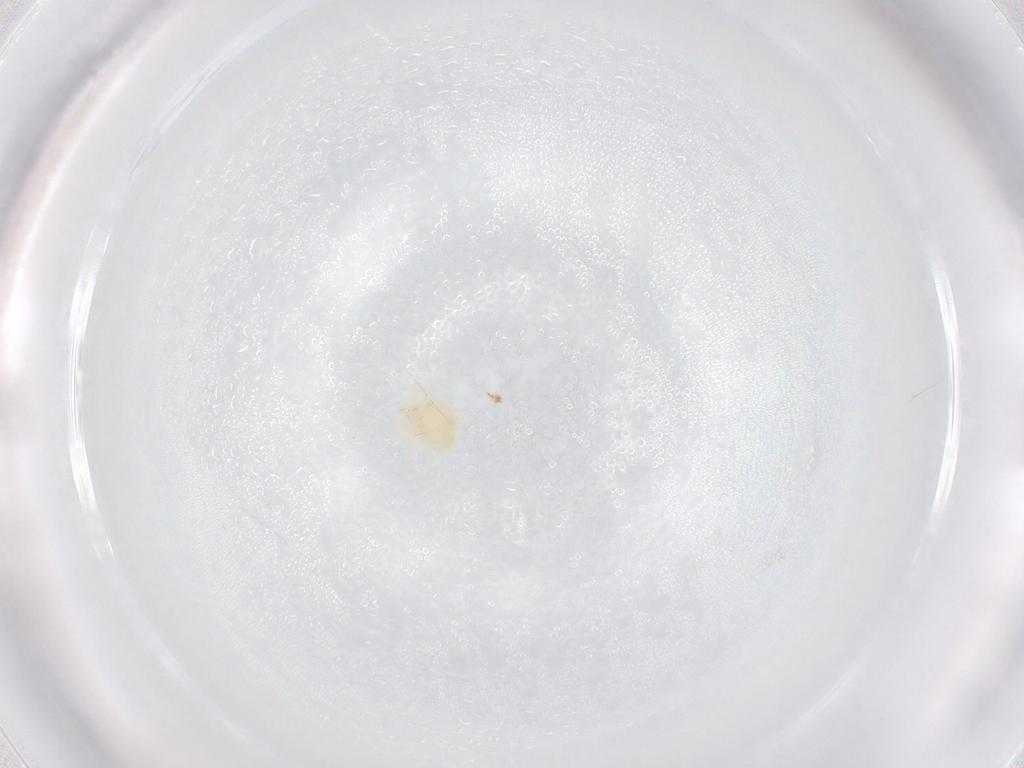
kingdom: Animalia
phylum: Arthropoda
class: Arachnida
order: Trombidiformes
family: Anystidae
